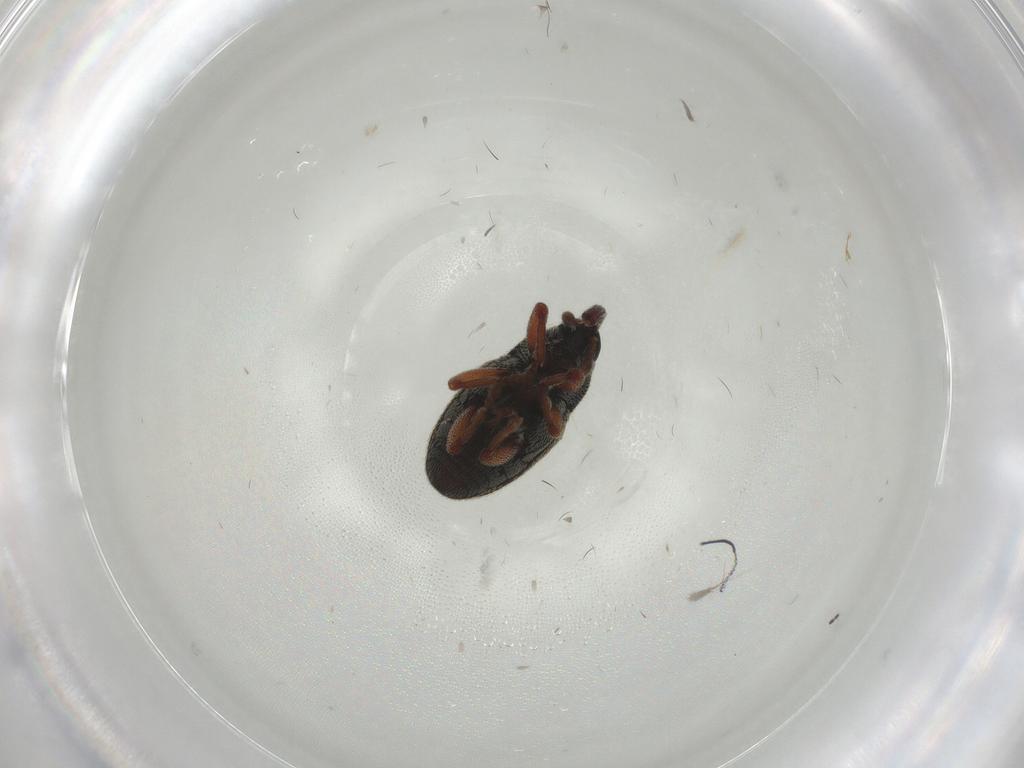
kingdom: Animalia
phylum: Arthropoda
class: Insecta
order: Coleoptera
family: Curculionidae
